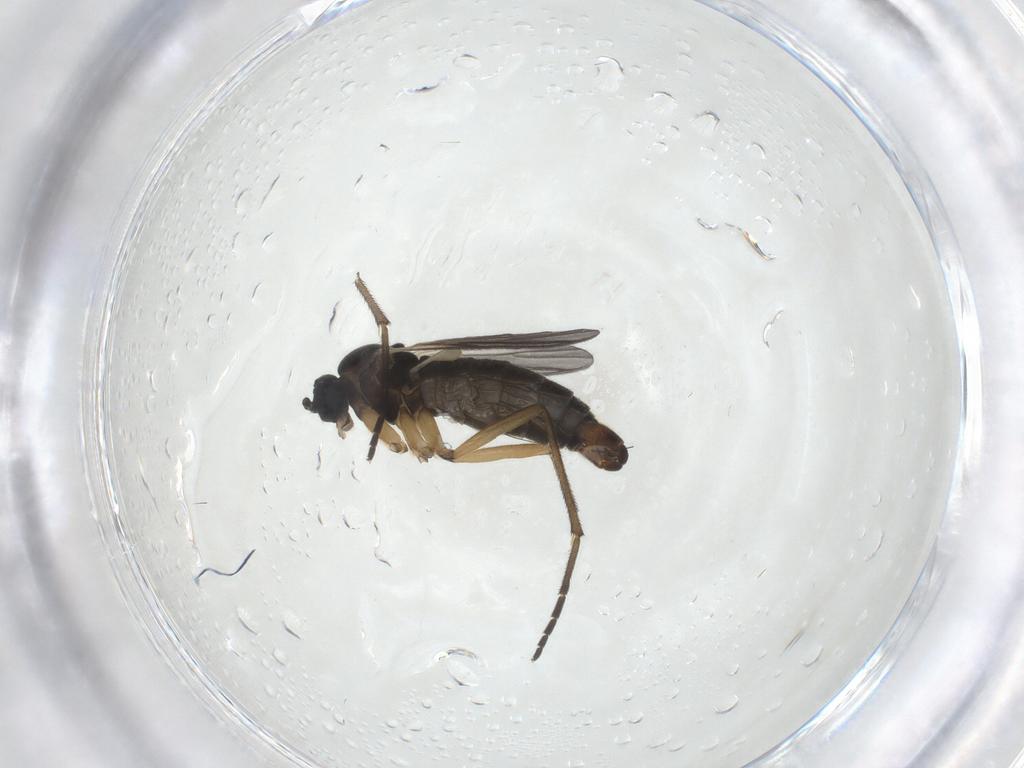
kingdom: Animalia
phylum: Arthropoda
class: Insecta
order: Diptera
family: Sciaridae
